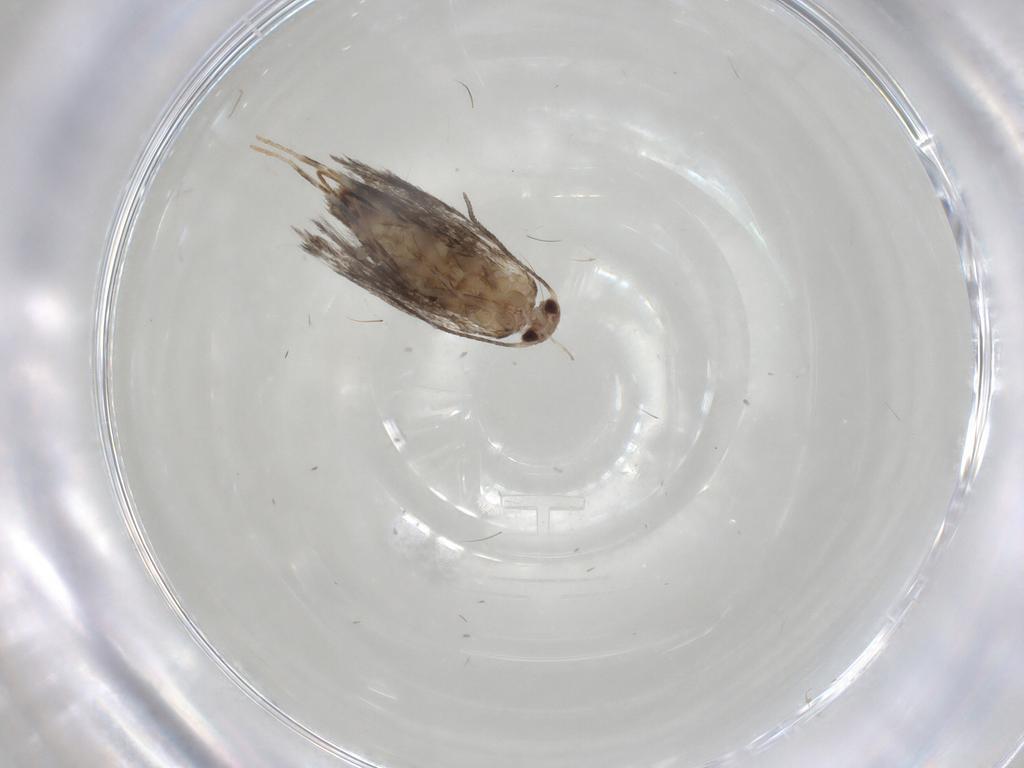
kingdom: Animalia
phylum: Arthropoda
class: Insecta
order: Lepidoptera
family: Elachistidae
